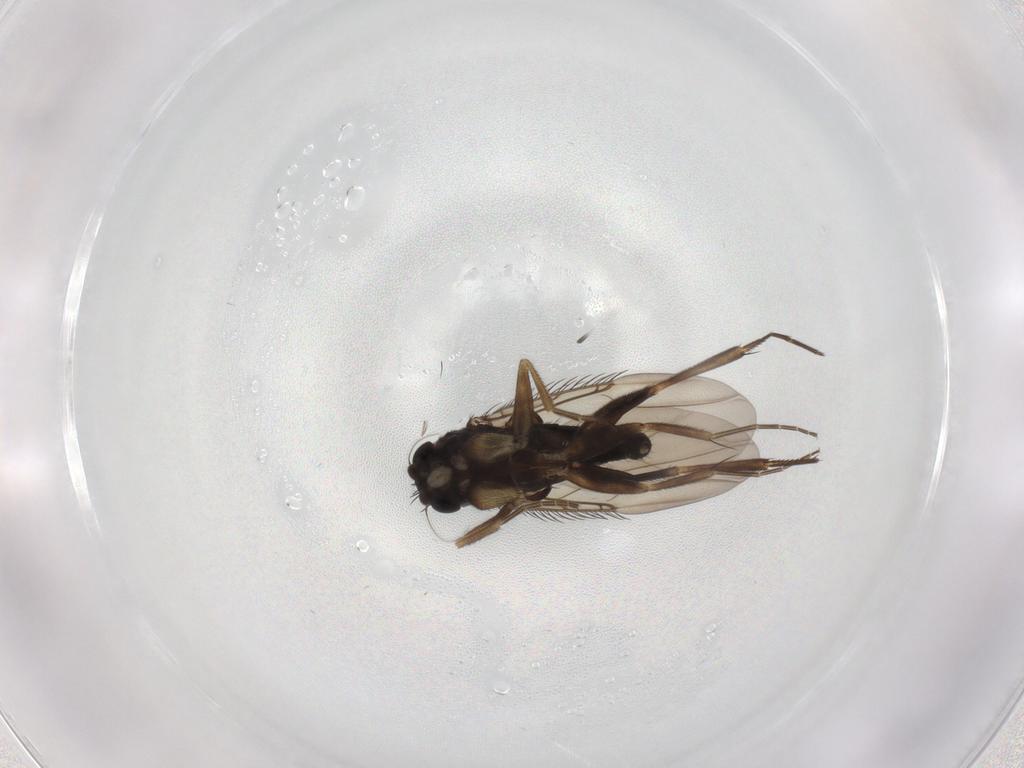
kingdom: Animalia
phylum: Arthropoda
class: Insecta
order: Diptera
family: Phoridae
